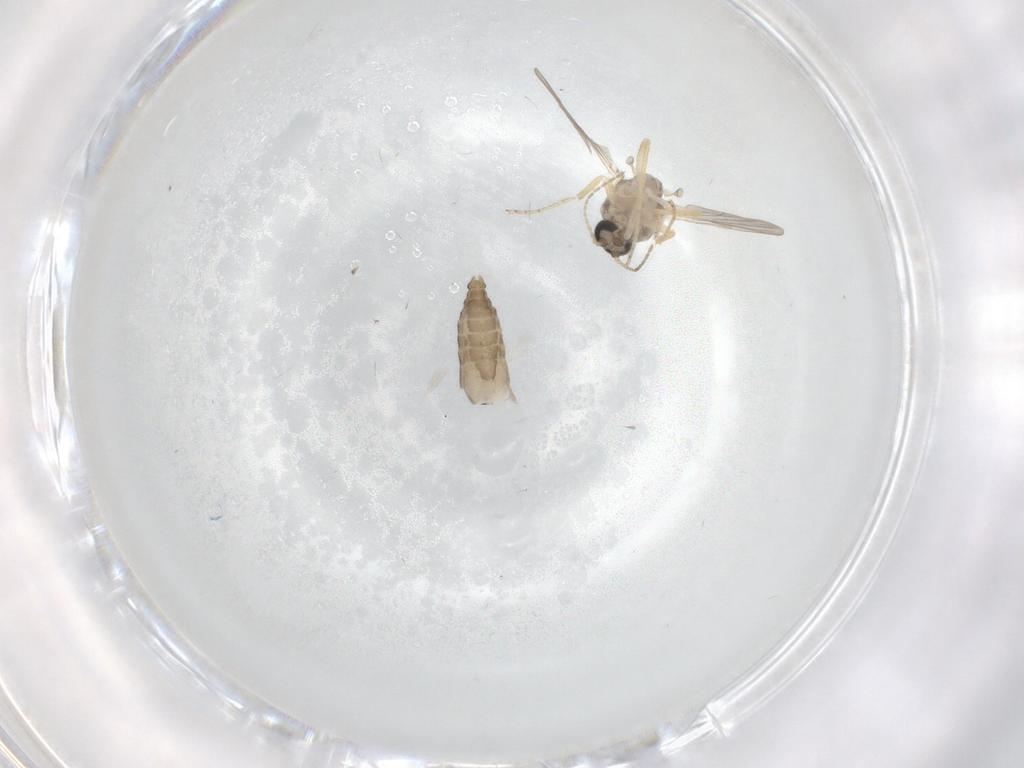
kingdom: Animalia
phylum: Arthropoda
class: Insecta
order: Diptera
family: Ceratopogonidae
